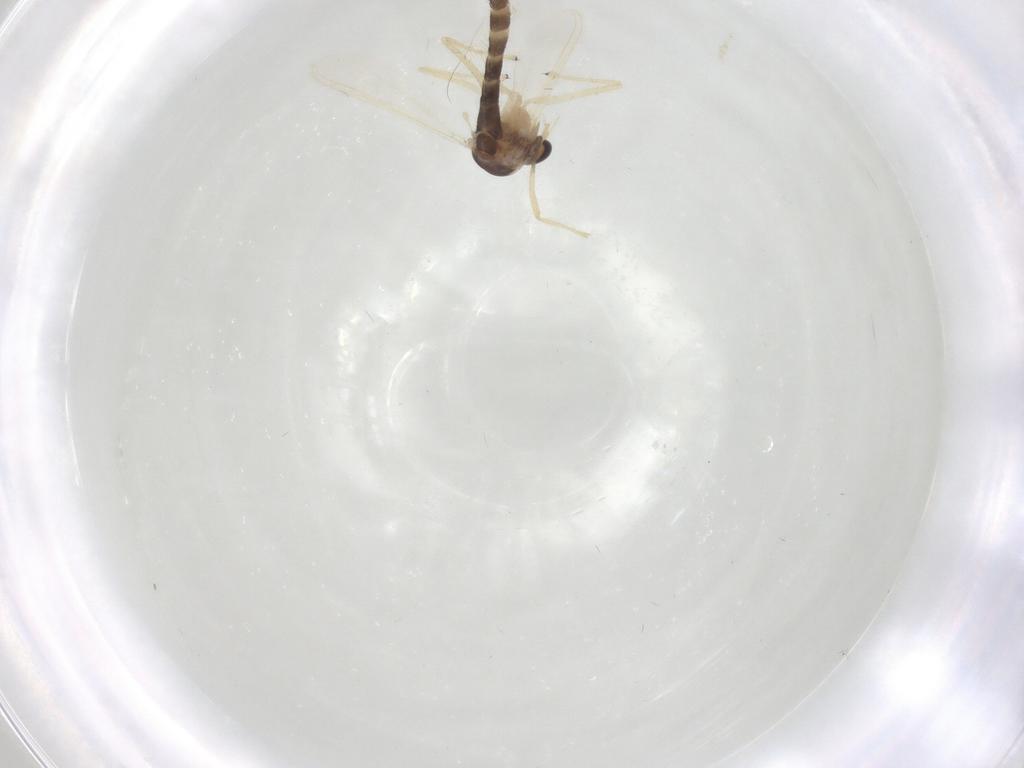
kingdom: Animalia
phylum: Arthropoda
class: Insecta
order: Diptera
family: Chironomidae
